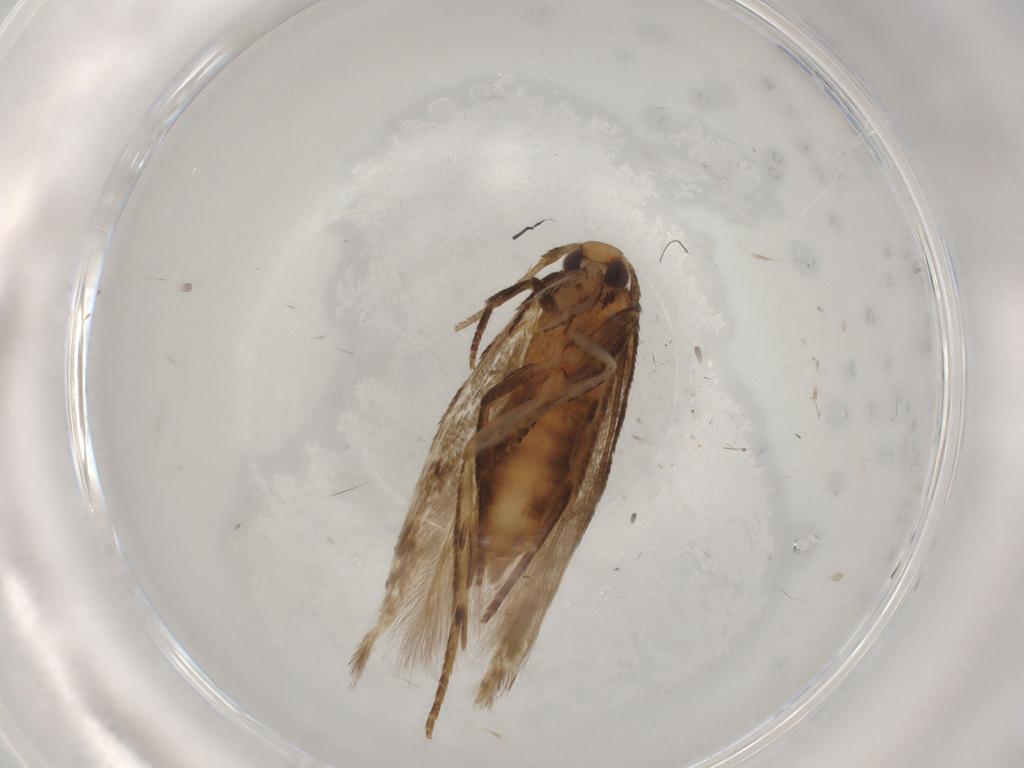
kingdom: Animalia
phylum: Arthropoda
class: Insecta
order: Lepidoptera
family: Cosmopterigidae
